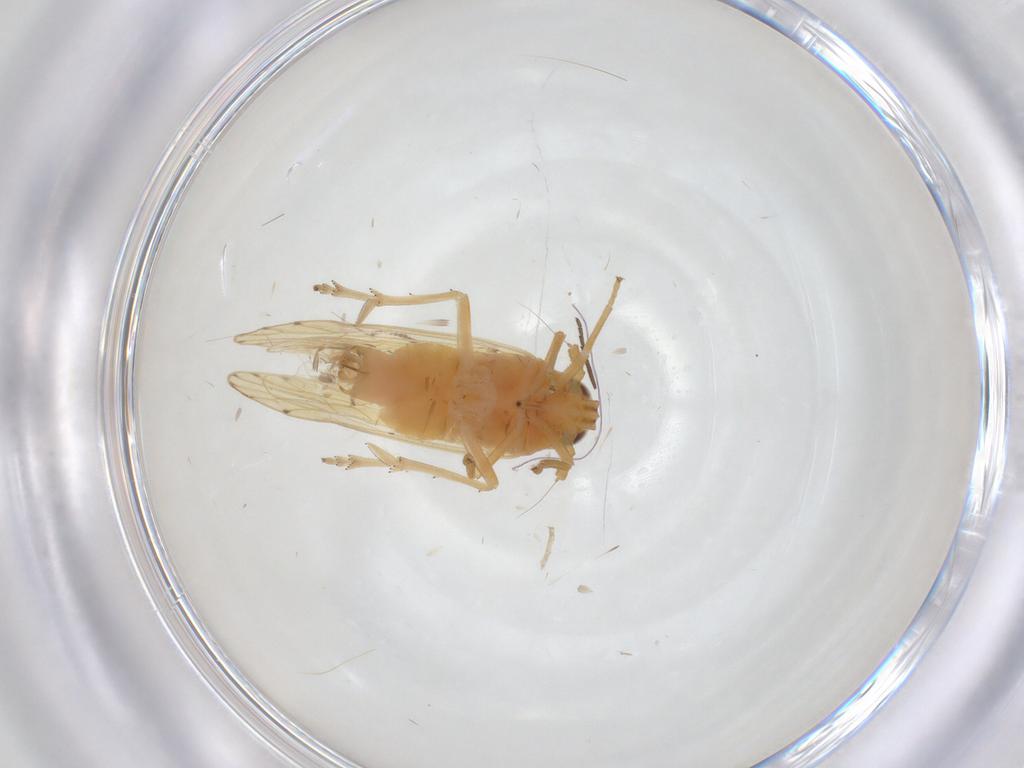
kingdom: Animalia
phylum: Arthropoda
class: Insecta
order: Hemiptera
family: Delphacidae
